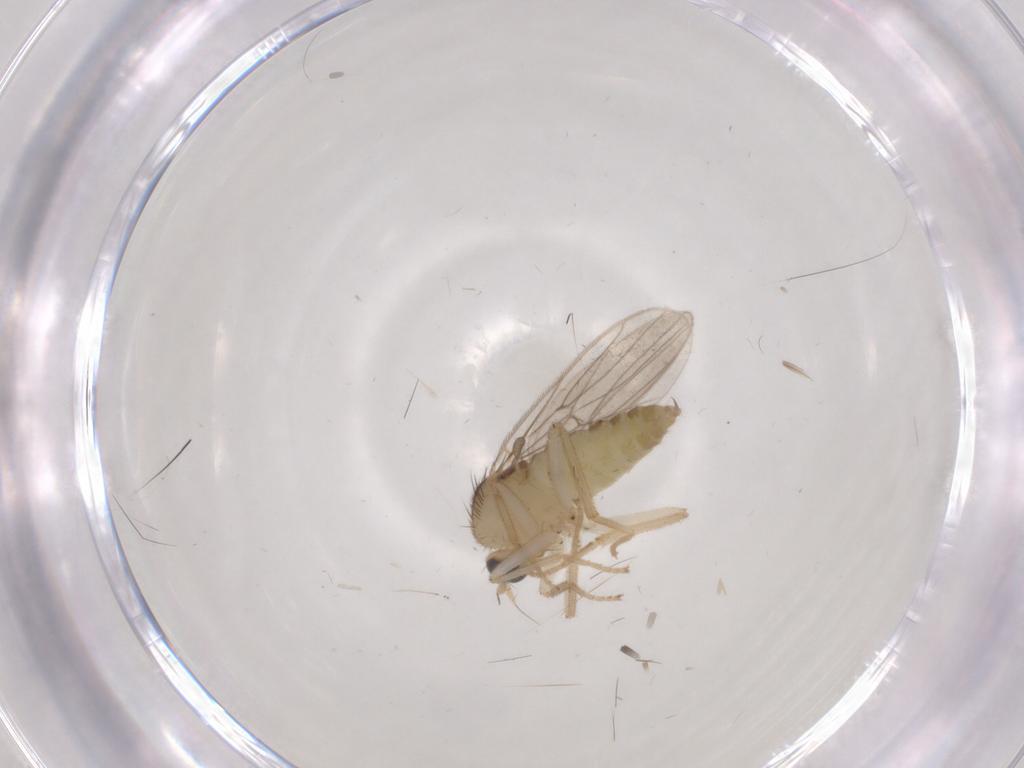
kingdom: Animalia
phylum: Arthropoda
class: Insecta
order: Diptera
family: Hybotidae
